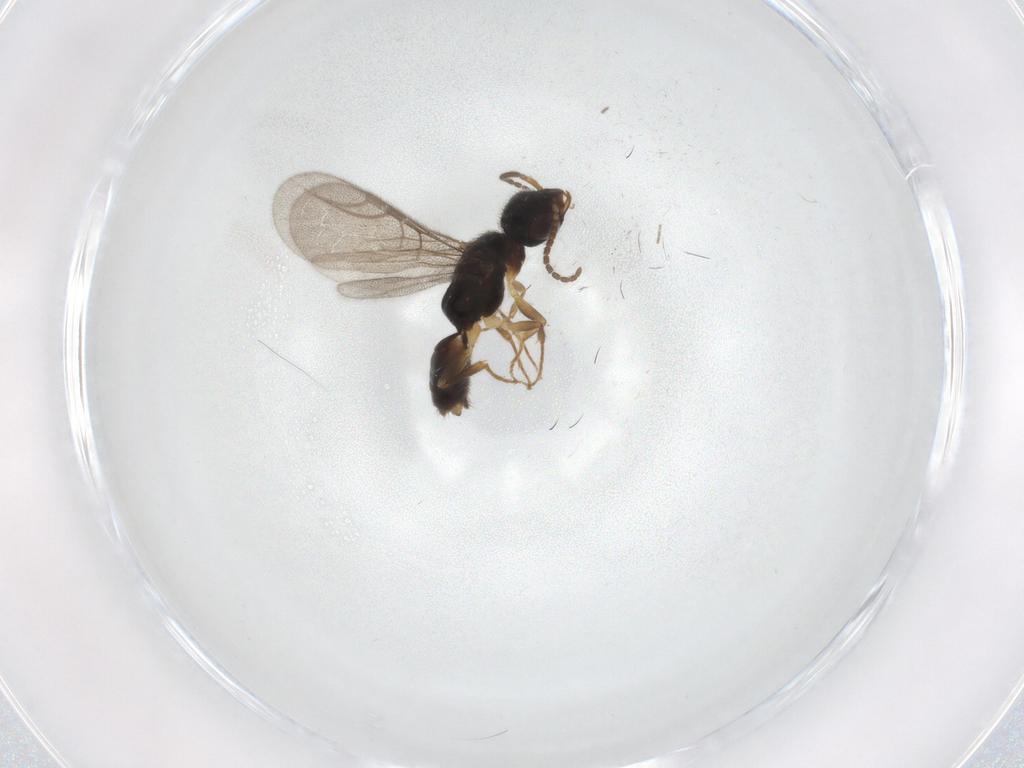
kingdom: Animalia
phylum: Arthropoda
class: Insecta
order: Hymenoptera
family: Bethylidae
